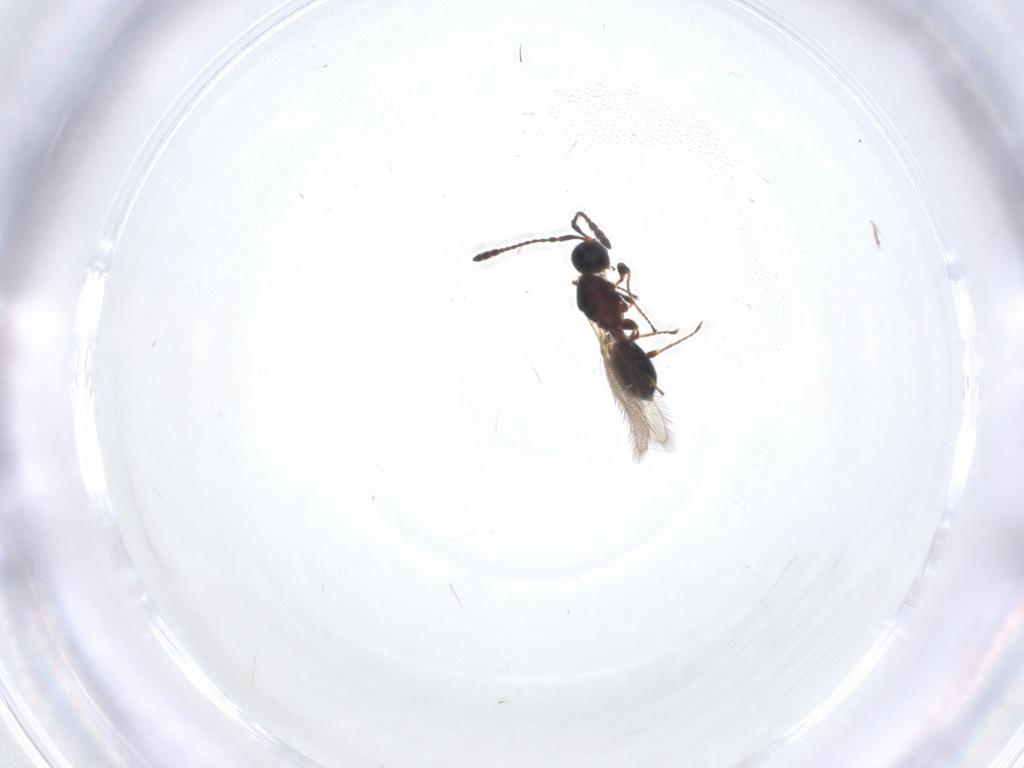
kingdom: Animalia
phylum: Arthropoda
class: Insecta
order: Hymenoptera
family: Diapriidae
